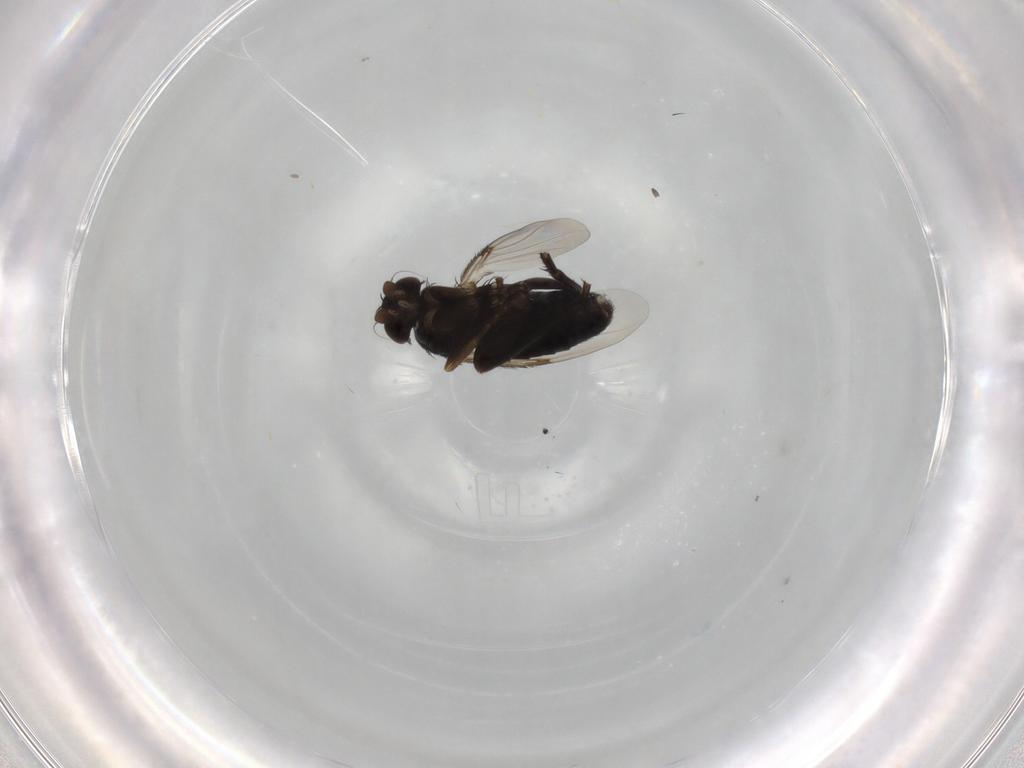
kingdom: Animalia
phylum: Arthropoda
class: Insecta
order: Diptera
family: Phoridae
